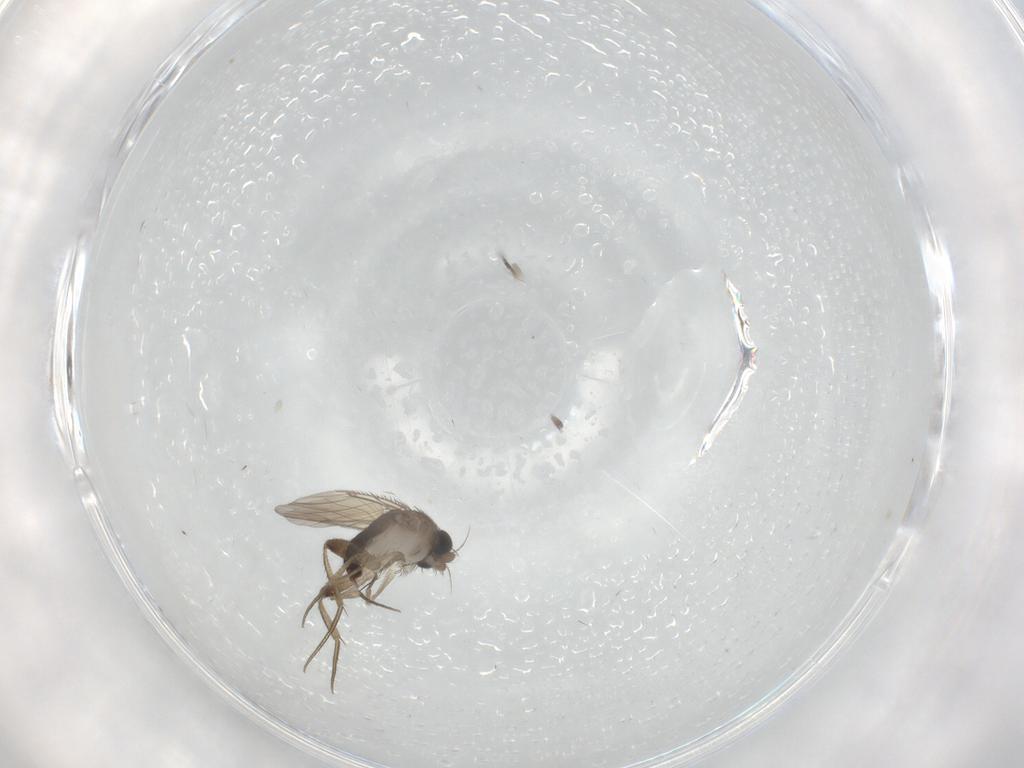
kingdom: Animalia
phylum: Arthropoda
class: Insecta
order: Diptera
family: Phoridae
